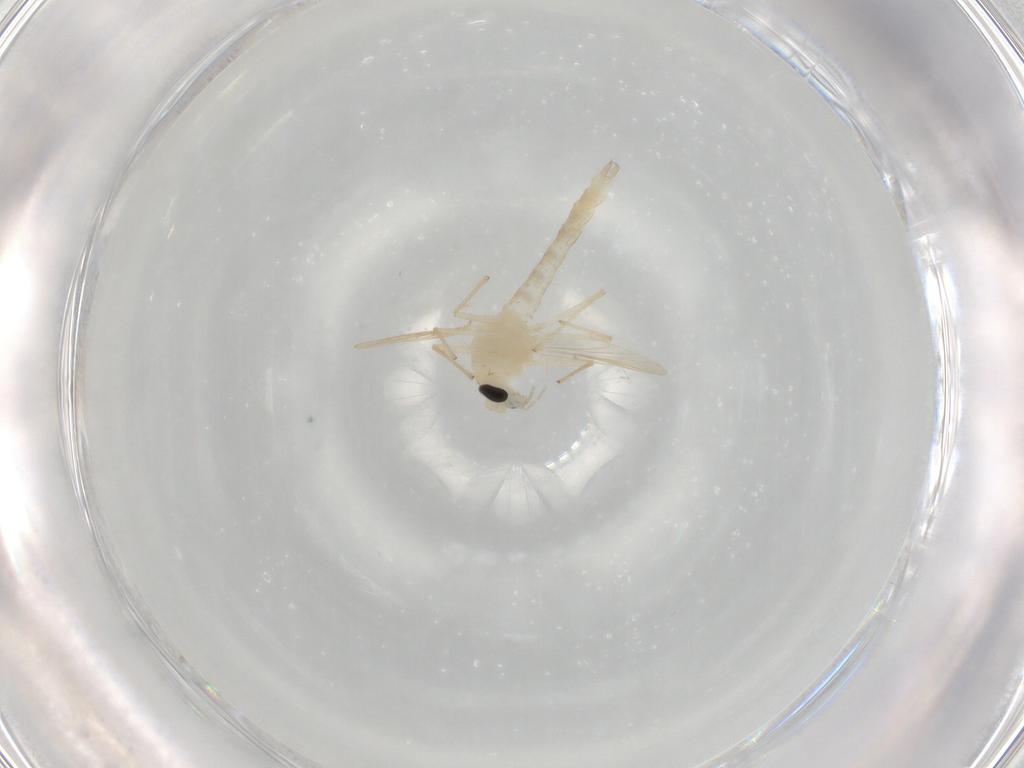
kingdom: Animalia
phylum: Arthropoda
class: Insecta
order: Diptera
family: Chironomidae
